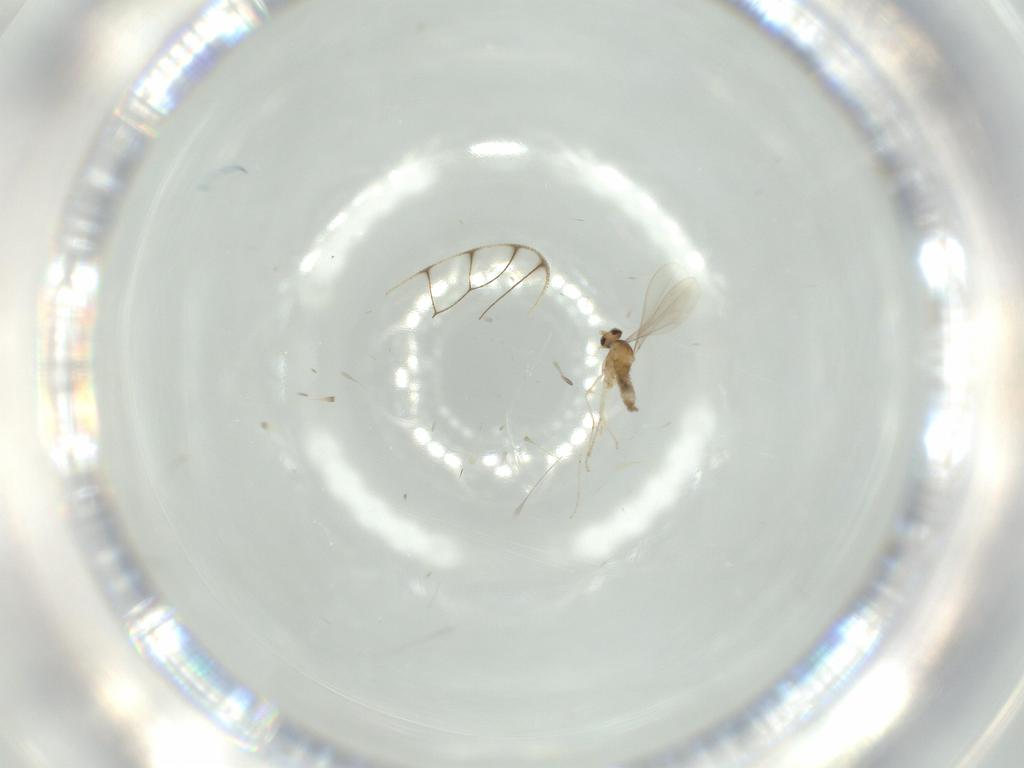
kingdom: Animalia
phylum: Arthropoda
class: Insecta
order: Diptera
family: Cecidomyiidae
